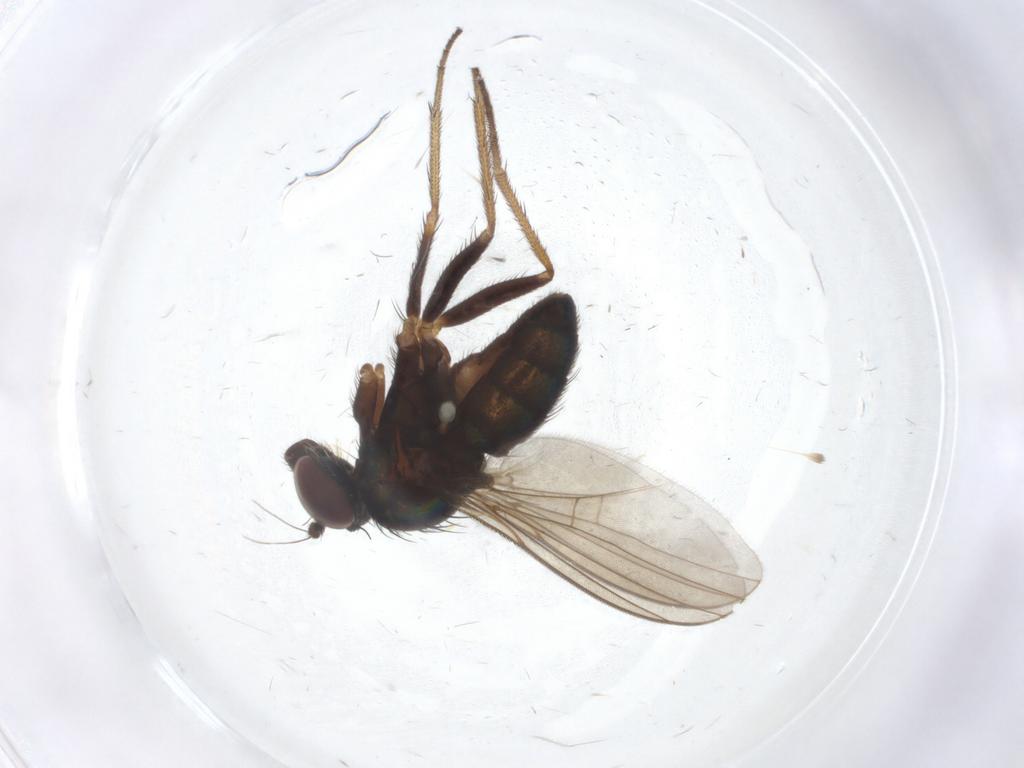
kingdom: Animalia
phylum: Arthropoda
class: Insecta
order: Diptera
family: Dolichopodidae
